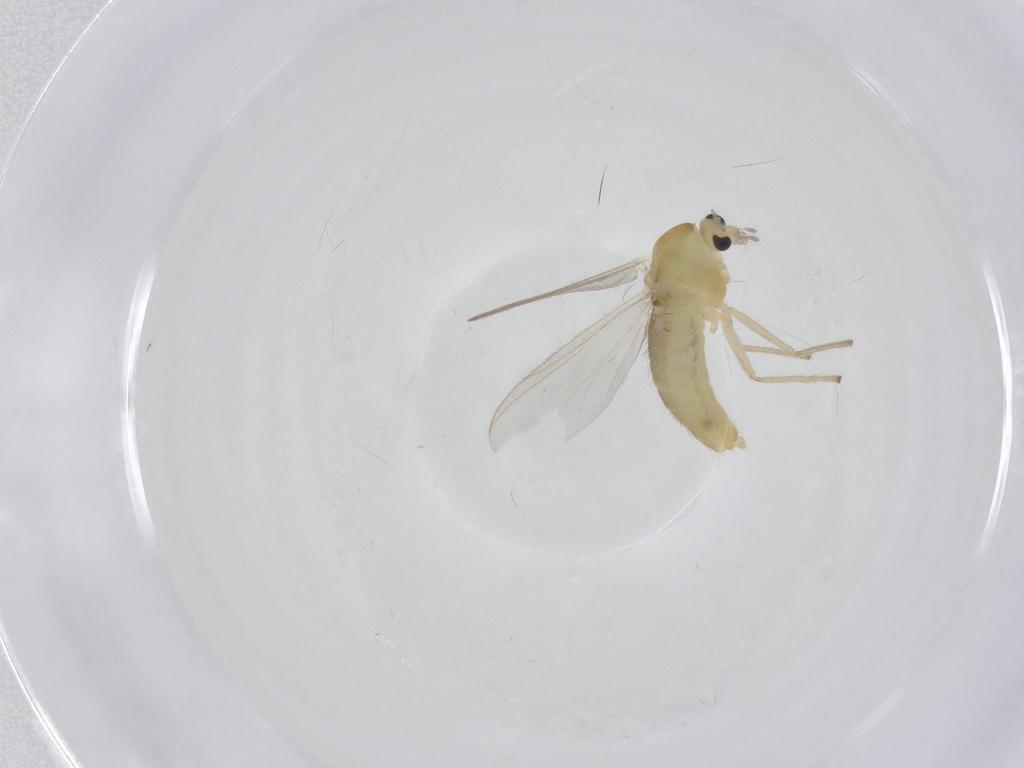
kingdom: Animalia
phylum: Arthropoda
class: Insecta
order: Diptera
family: Chironomidae
